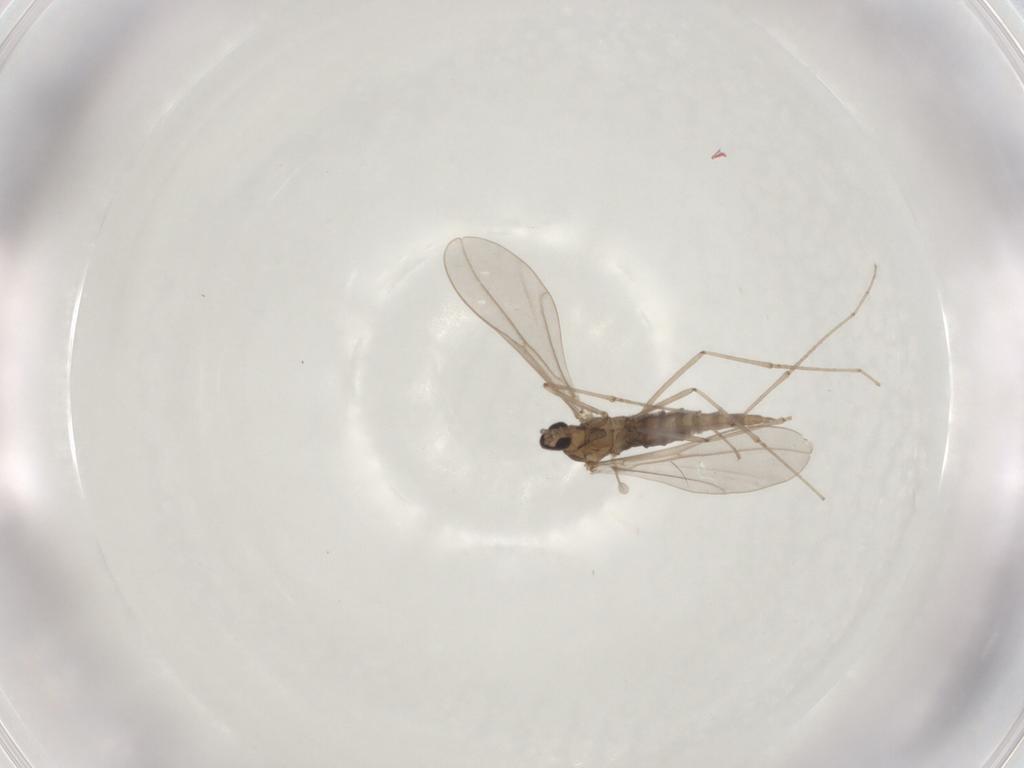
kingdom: Animalia
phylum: Arthropoda
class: Insecta
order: Diptera
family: Cecidomyiidae
